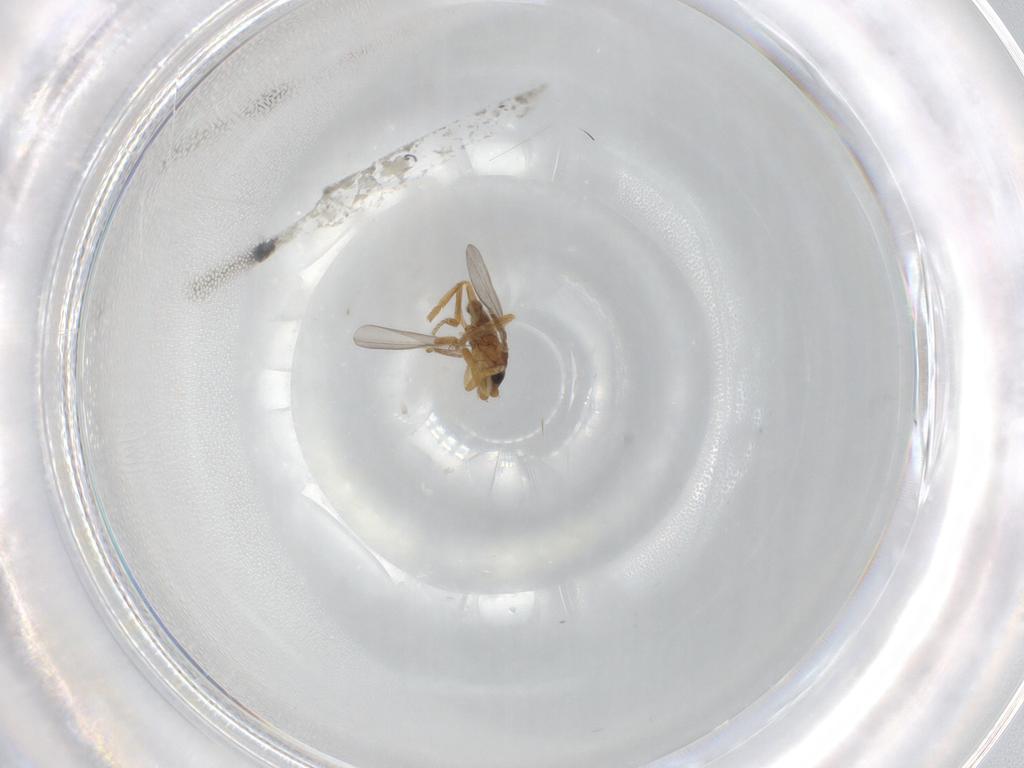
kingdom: Animalia
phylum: Arthropoda
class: Insecta
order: Diptera
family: Phoridae
